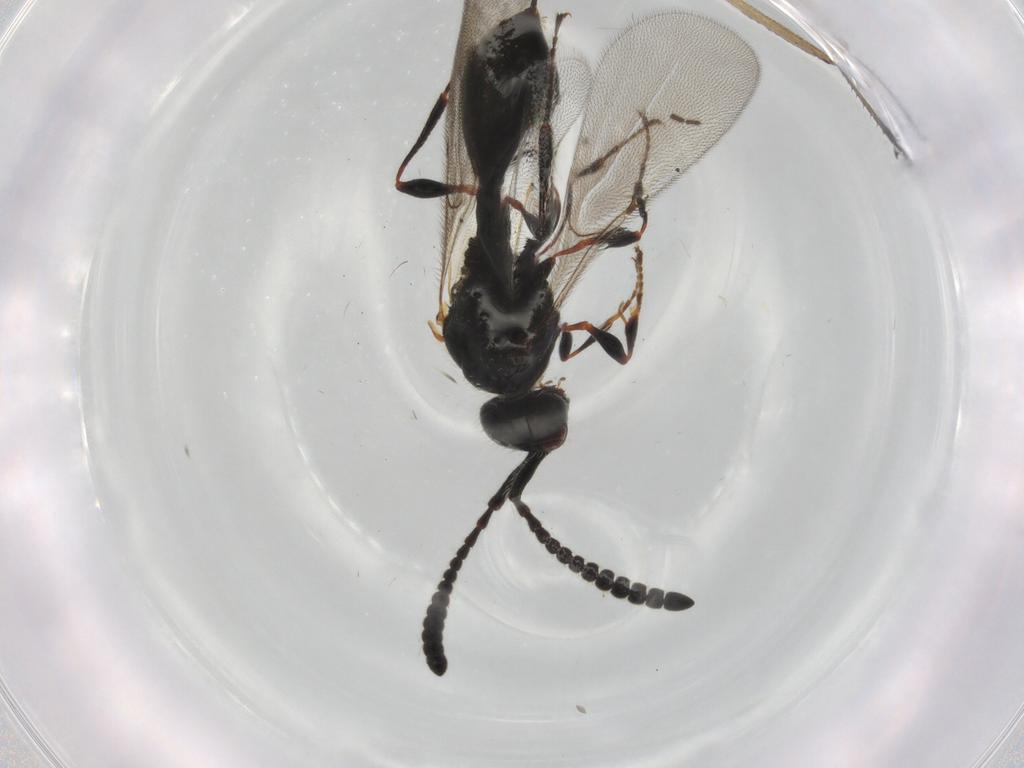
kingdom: Animalia
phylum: Arthropoda
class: Insecta
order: Hymenoptera
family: Diapriidae
